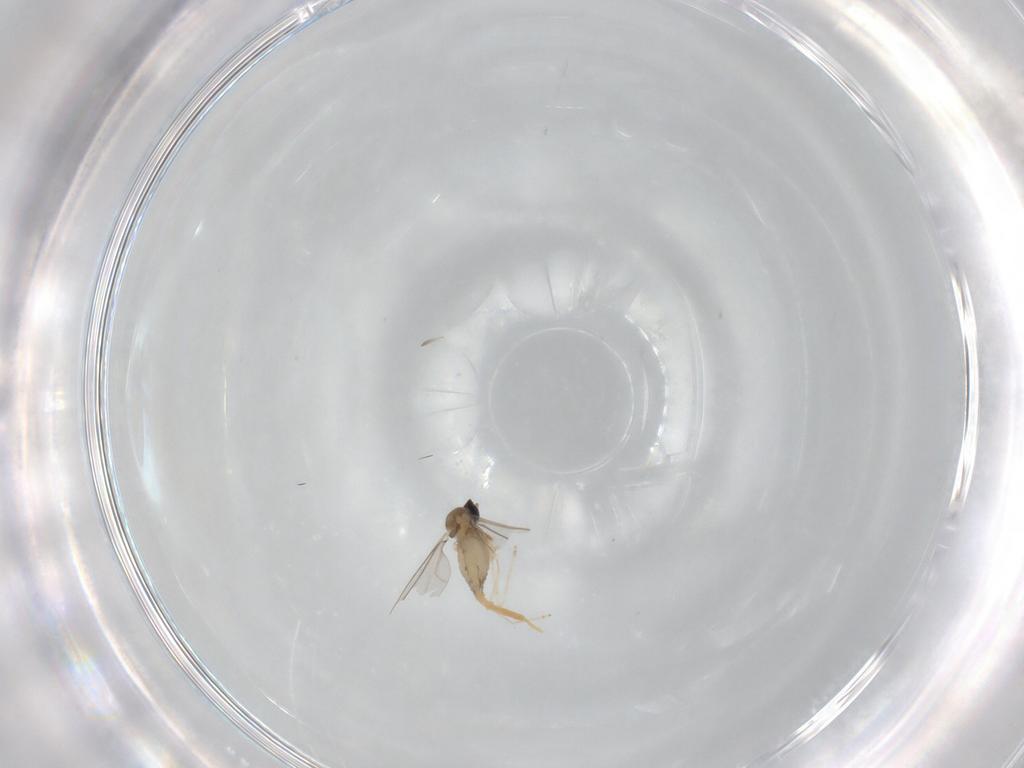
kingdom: Animalia
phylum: Arthropoda
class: Insecta
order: Diptera
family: Cecidomyiidae
